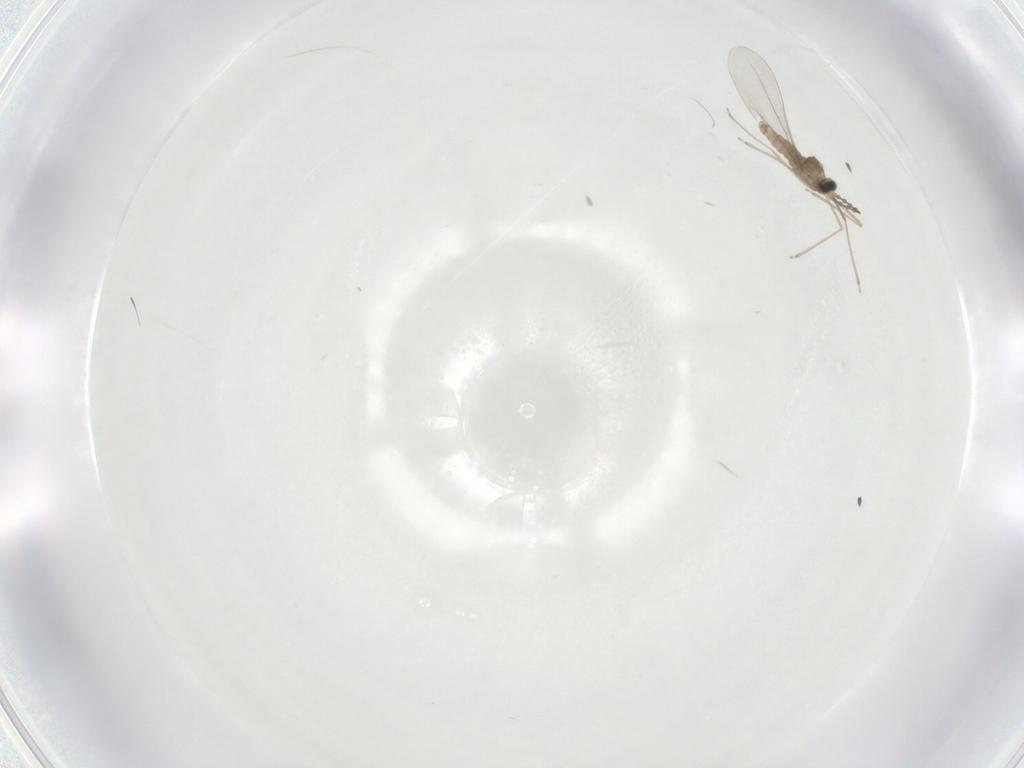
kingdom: Animalia
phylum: Arthropoda
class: Insecta
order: Diptera
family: Cecidomyiidae
